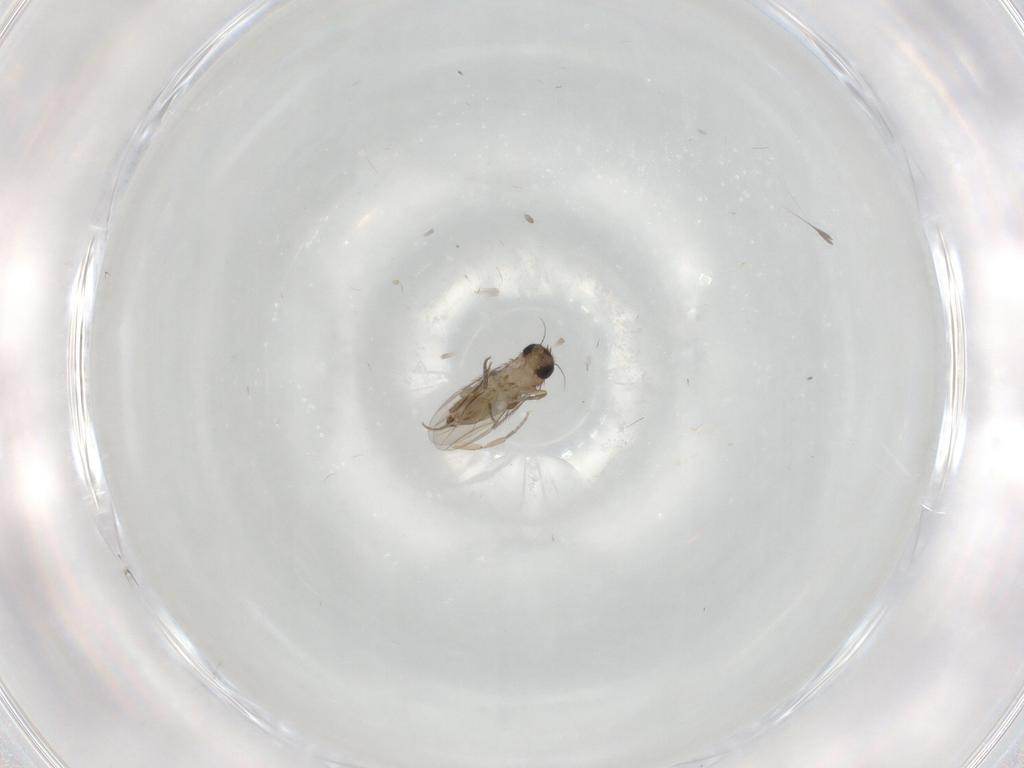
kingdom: Animalia
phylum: Arthropoda
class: Insecta
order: Diptera
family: Phoridae
